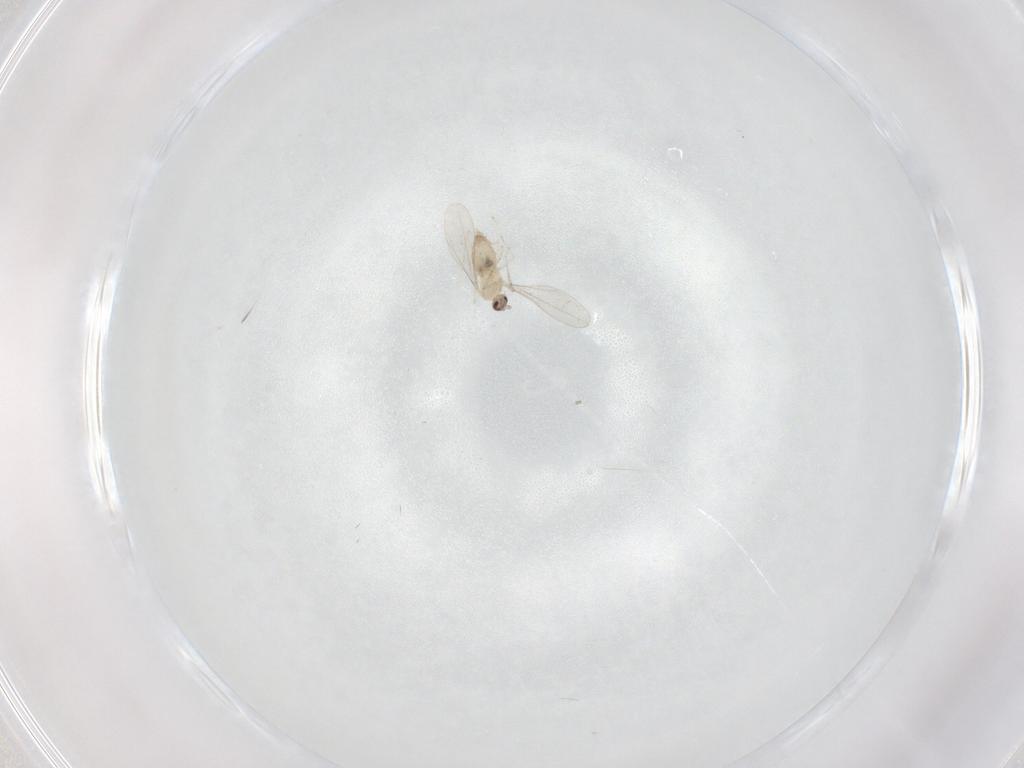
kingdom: Animalia
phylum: Arthropoda
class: Insecta
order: Diptera
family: Cecidomyiidae
